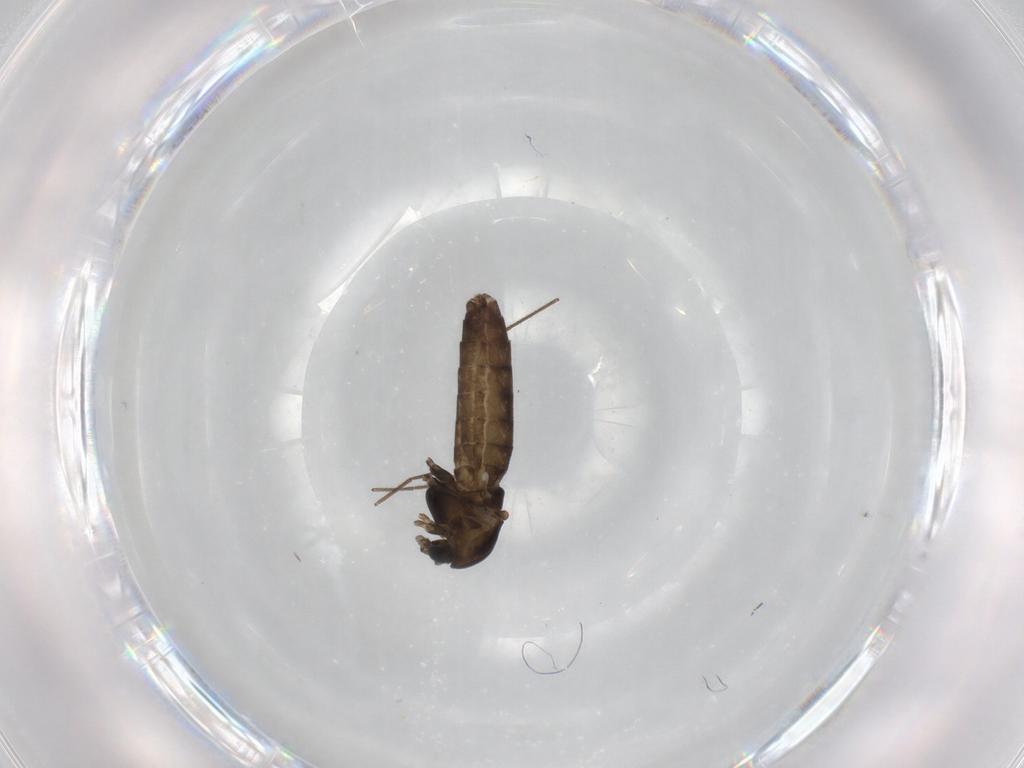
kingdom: Animalia
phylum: Arthropoda
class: Insecta
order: Diptera
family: Chironomidae
